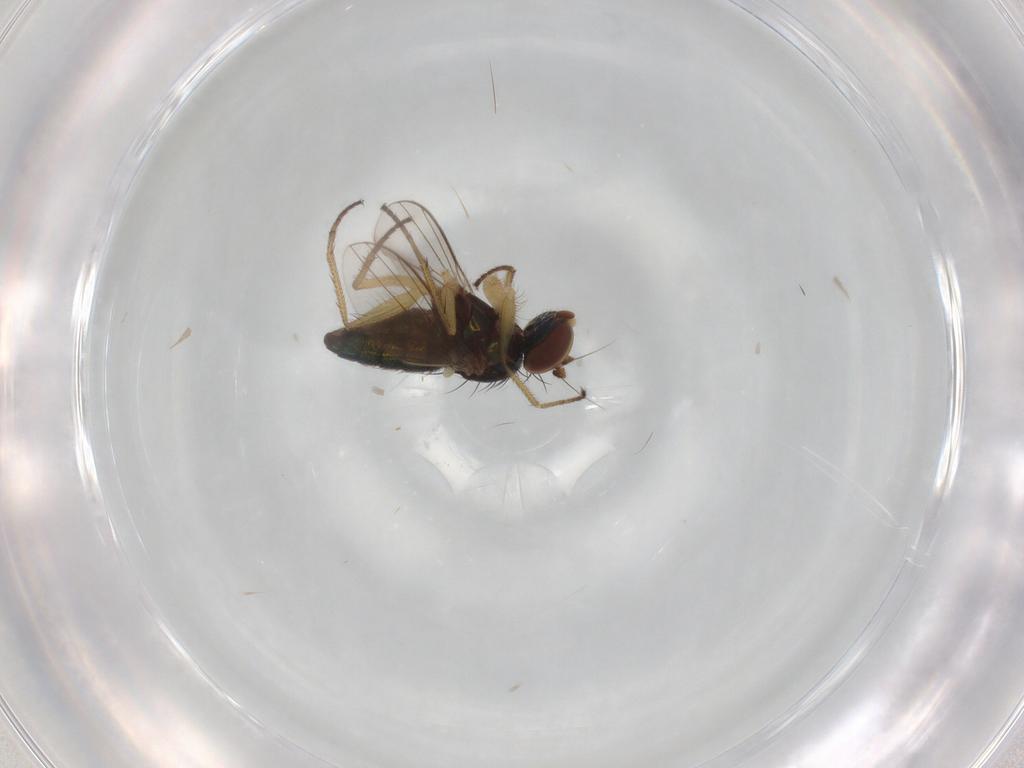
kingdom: Animalia
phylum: Arthropoda
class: Insecta
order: Diptera
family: Dolichopodidae
